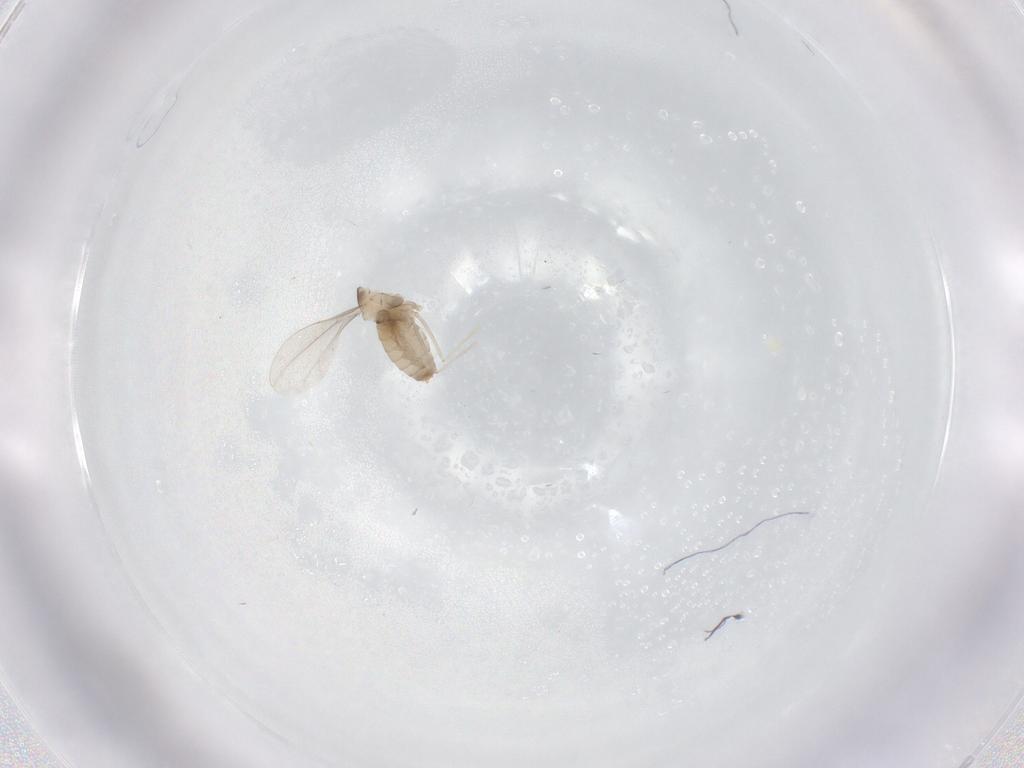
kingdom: Animalia
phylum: Arthropoda
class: Insecta
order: Diptera
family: Cecidomyiidae
